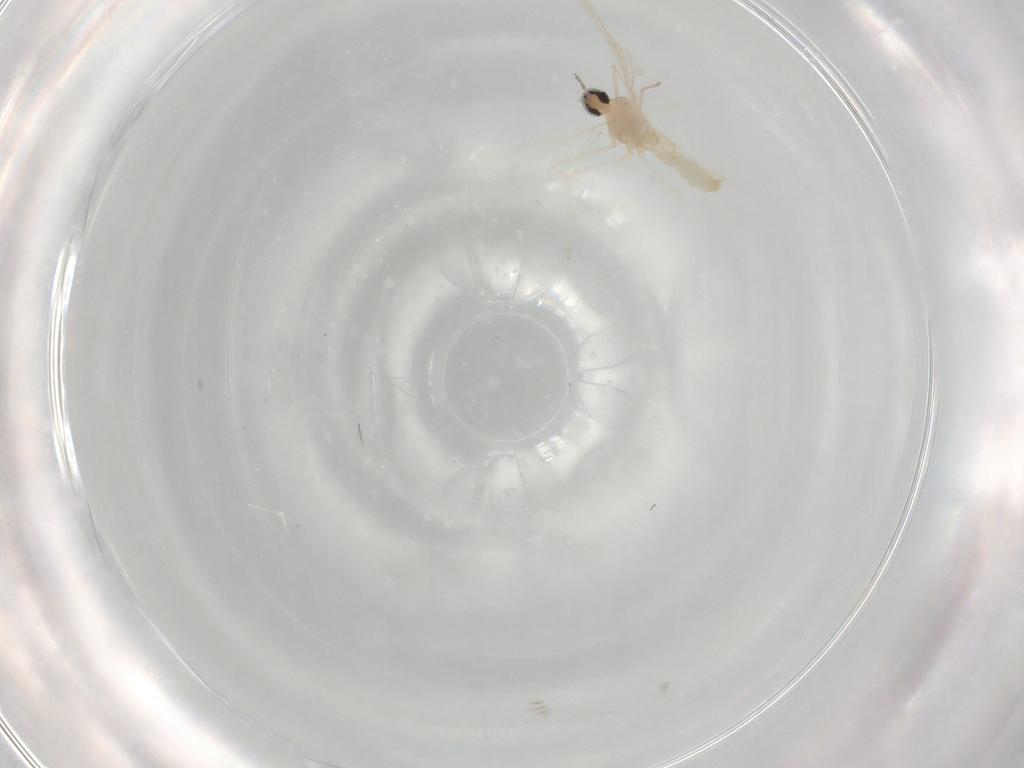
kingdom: Animalia
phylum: Arthropoda
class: Insecta
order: Diptera
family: Cecidomyiidae
